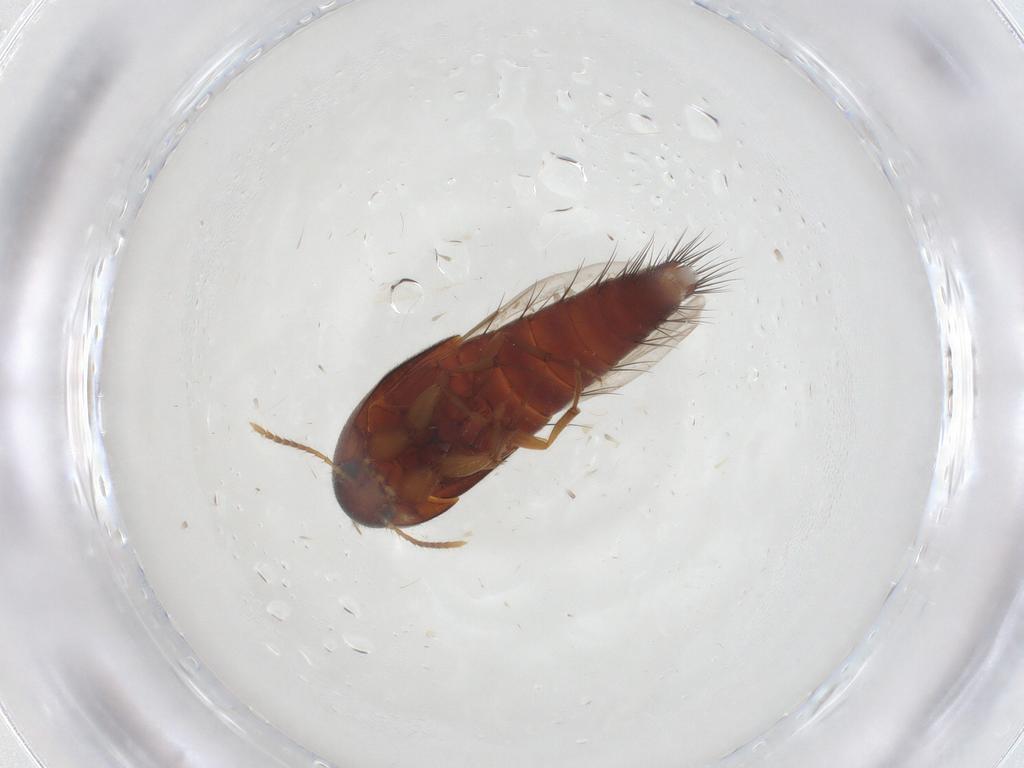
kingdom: Animalia
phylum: Arthropoda
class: Insecta
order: Coleoptera
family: Staphylinidae
